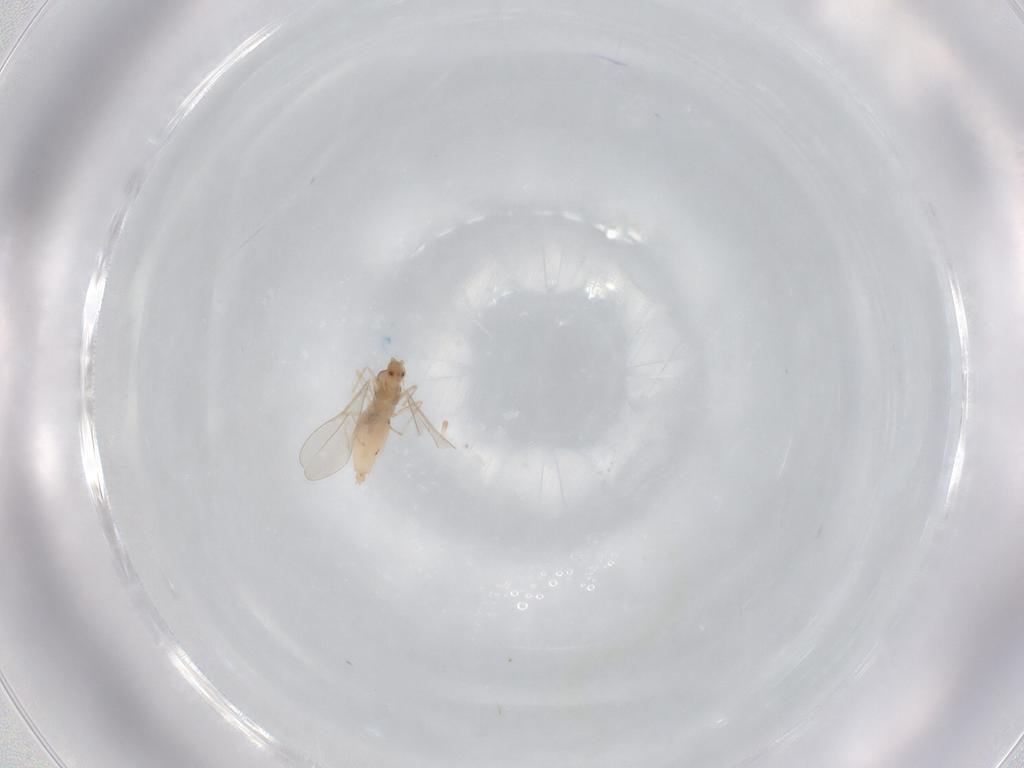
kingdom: Animalia
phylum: Arthropoda
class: Insecta
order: Diptera
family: Cecidomyiidae
